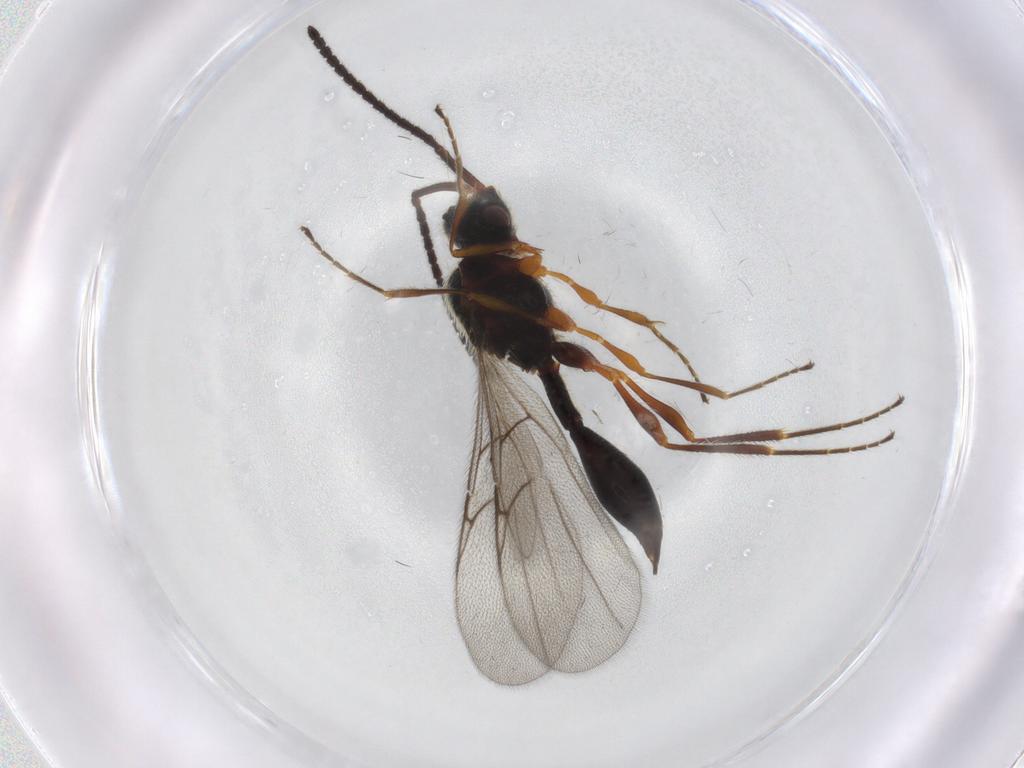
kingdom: Animalia
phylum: Arthropoda
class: Insecta
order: Hymenoptera
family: Diapriidae
